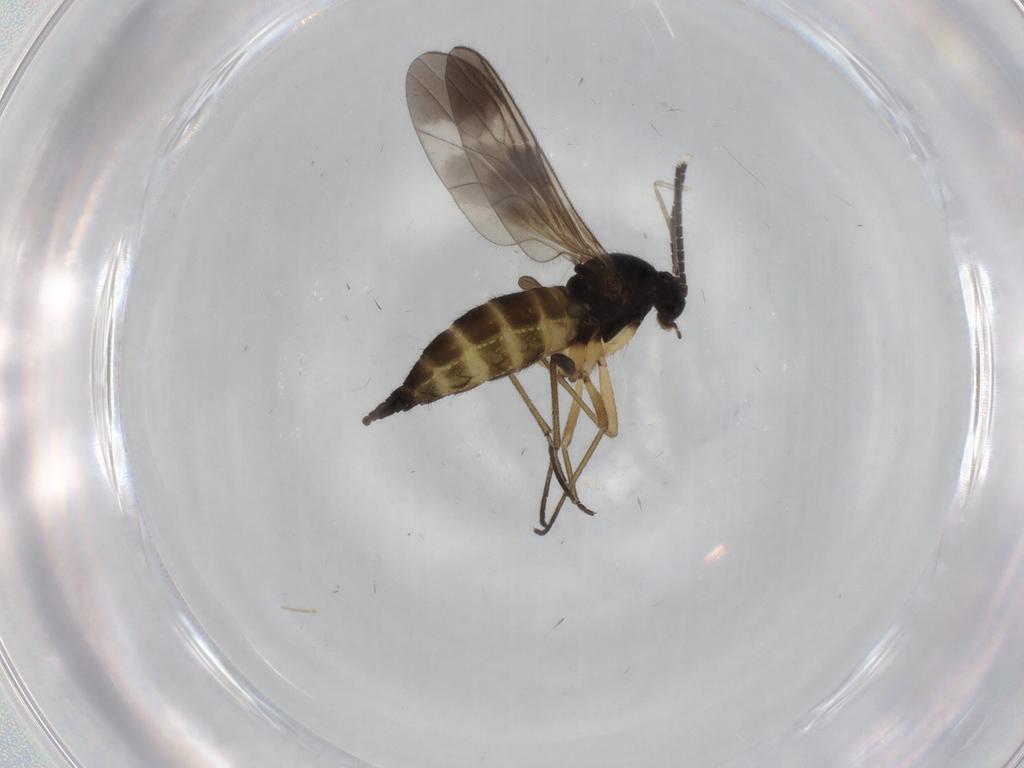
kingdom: Animalia
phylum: Arthropoda
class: Insecta
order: Diptera
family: Sciaridae
